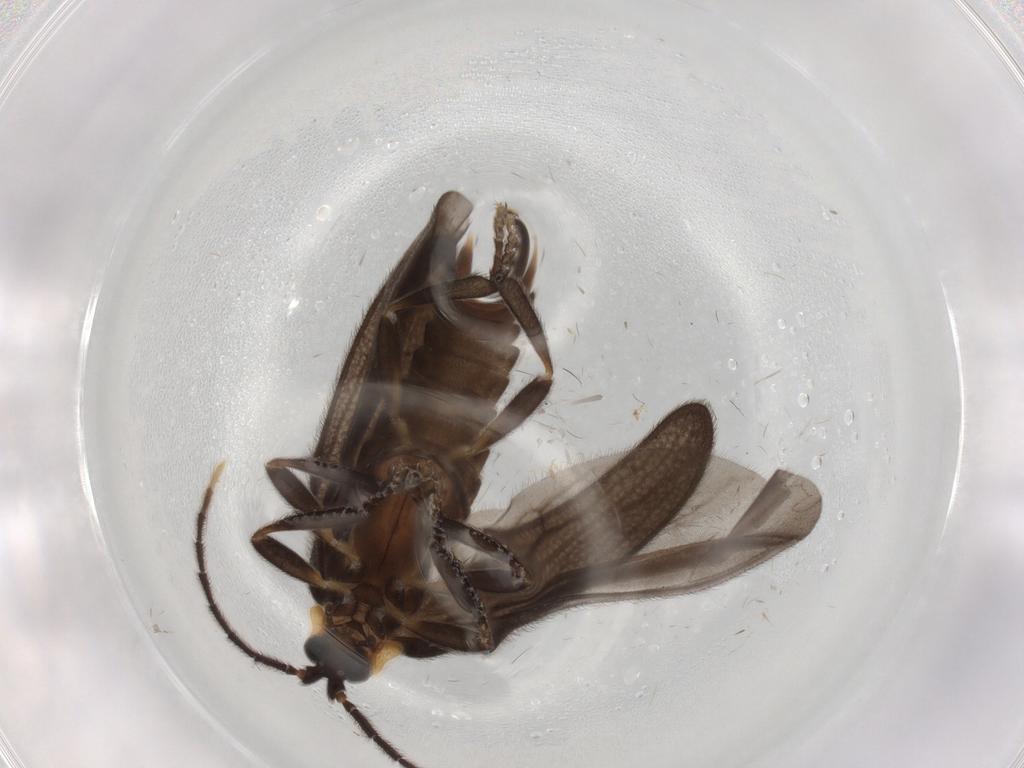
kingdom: Animalia
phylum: Arthropoda
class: Insecta
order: Coleoptera
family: Lycidae
